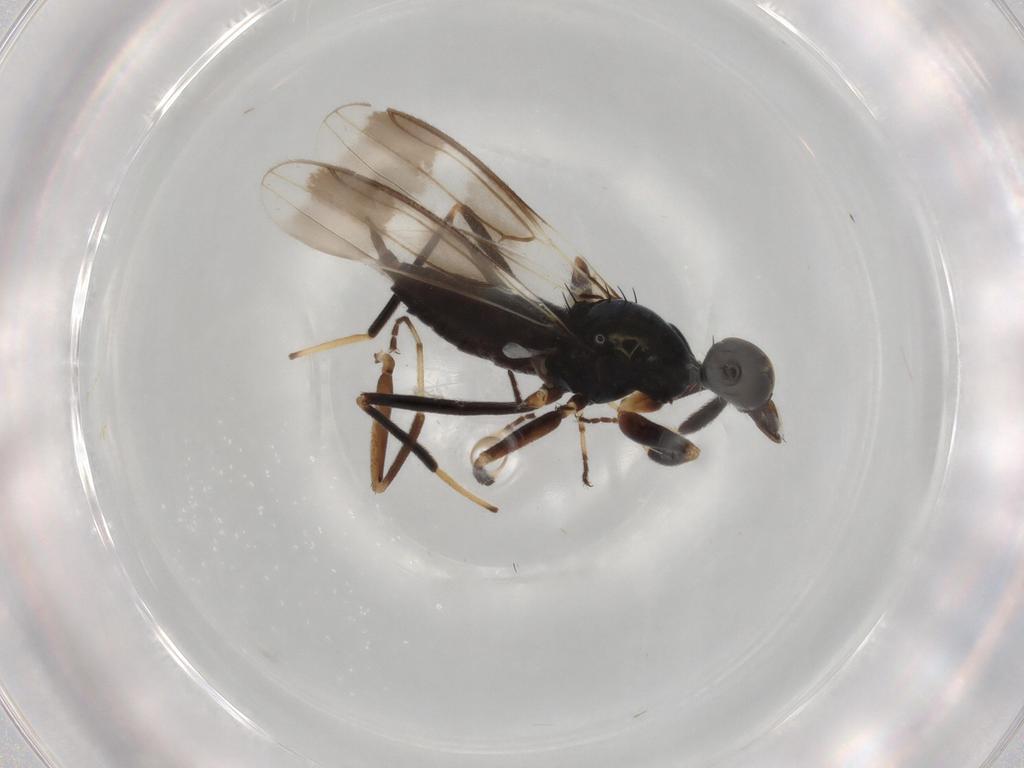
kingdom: Animalia
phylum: Arthropoda
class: Insecta
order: Diptera
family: Hybotidae
